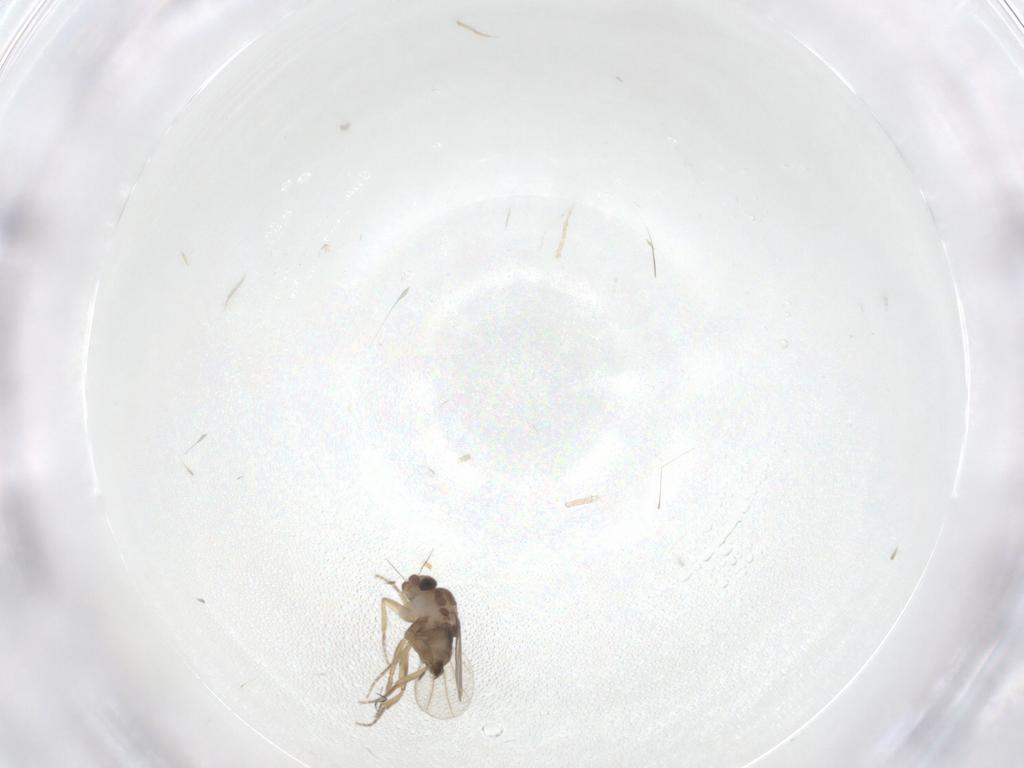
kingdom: Animalia
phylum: Arthropoda
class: Insecta
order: Diptera
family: Phoridae
